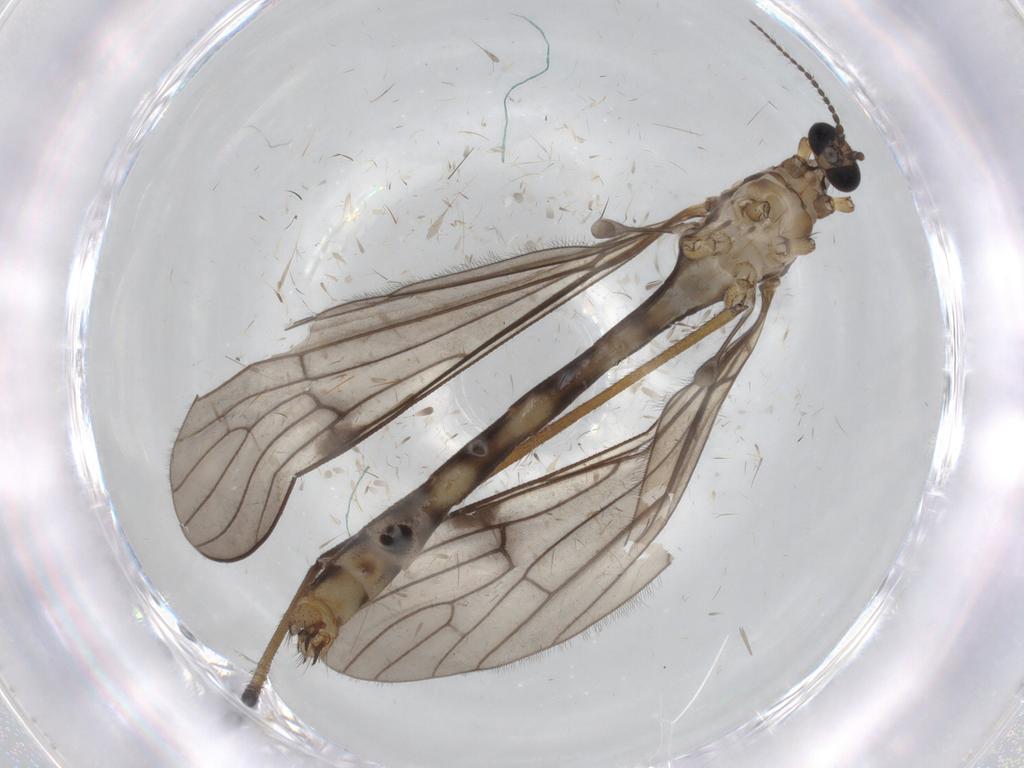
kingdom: Animalia
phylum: Arthropoda
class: Insecta
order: Diptera
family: Limoniidae
